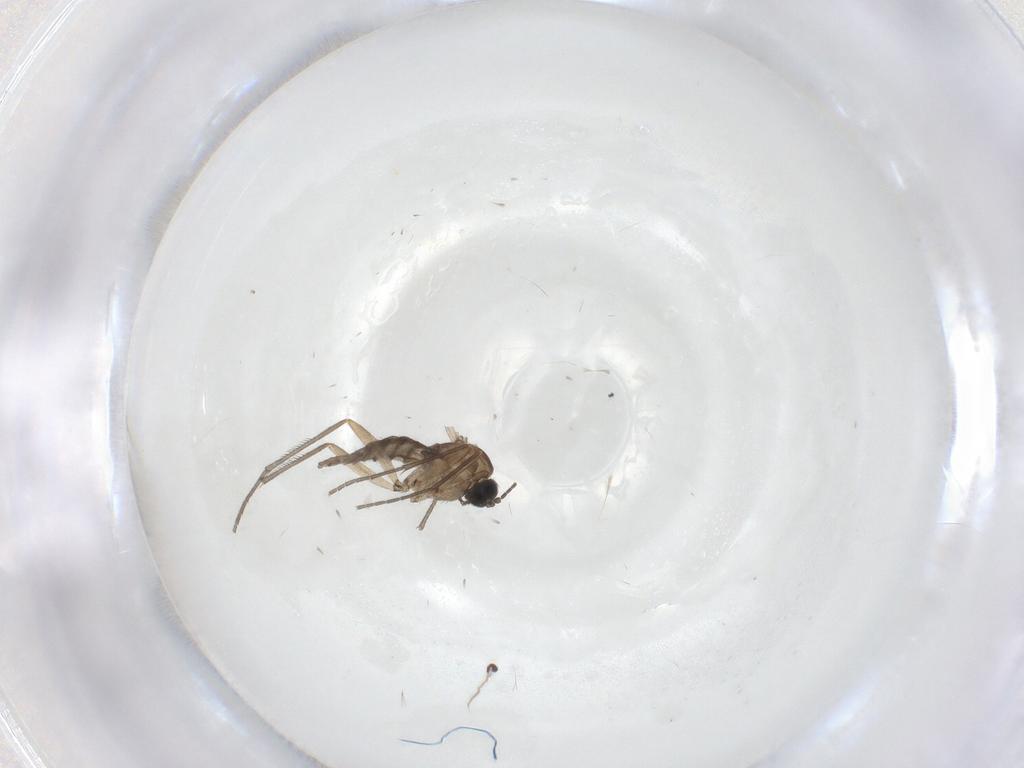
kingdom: Animalia
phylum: Arthropoda
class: Insecta
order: Diptera
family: Sciaridae
